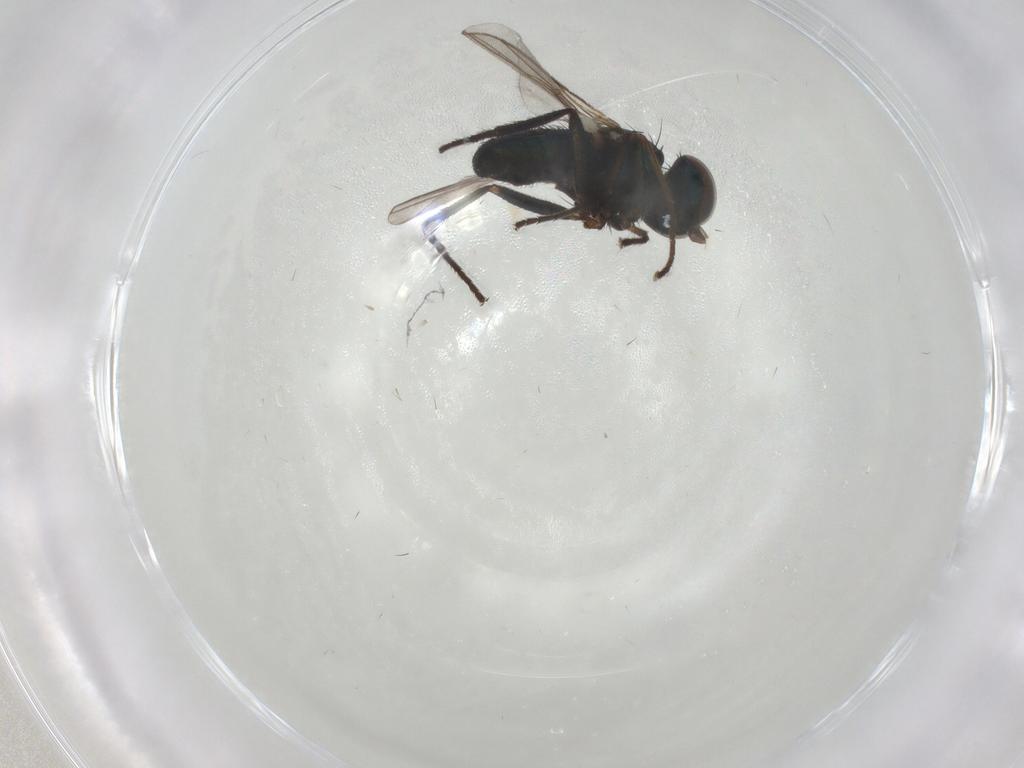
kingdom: Animalia
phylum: Arthropoda
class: Insecta
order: Diptera
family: Dolichopodidae
